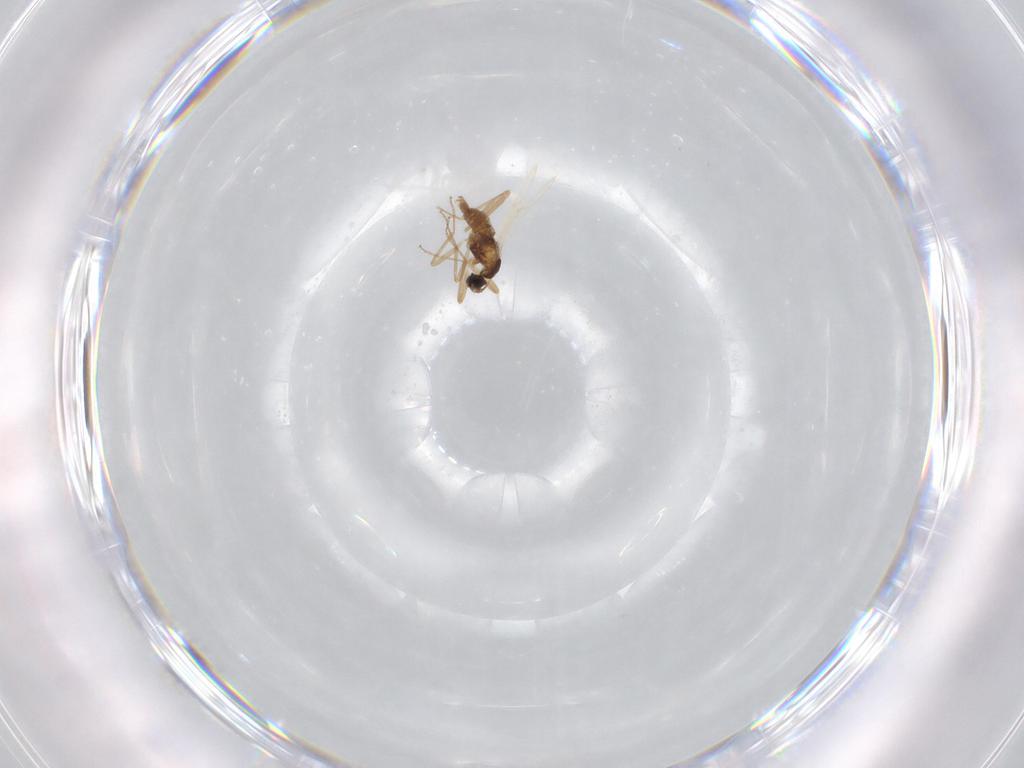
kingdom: Animalia
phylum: Arthropoda
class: Insecta
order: Diptera
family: Cecidomyiidae
